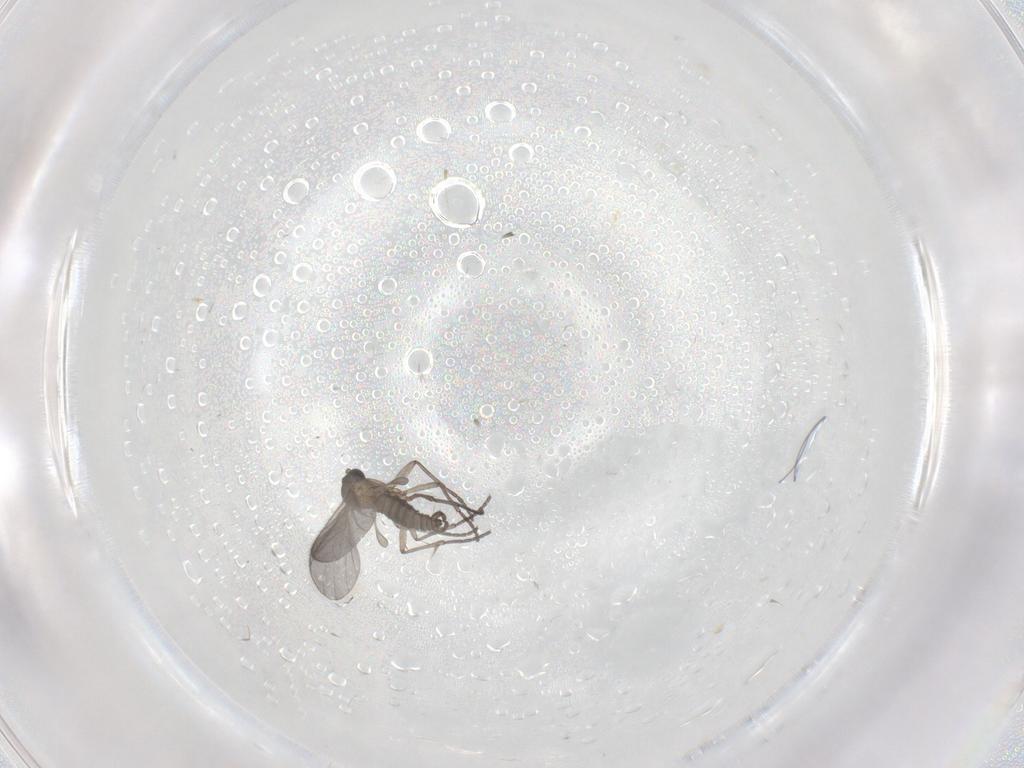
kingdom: Animalia
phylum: Arthropoda
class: Insecta
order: Diptera
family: Sciaridae
